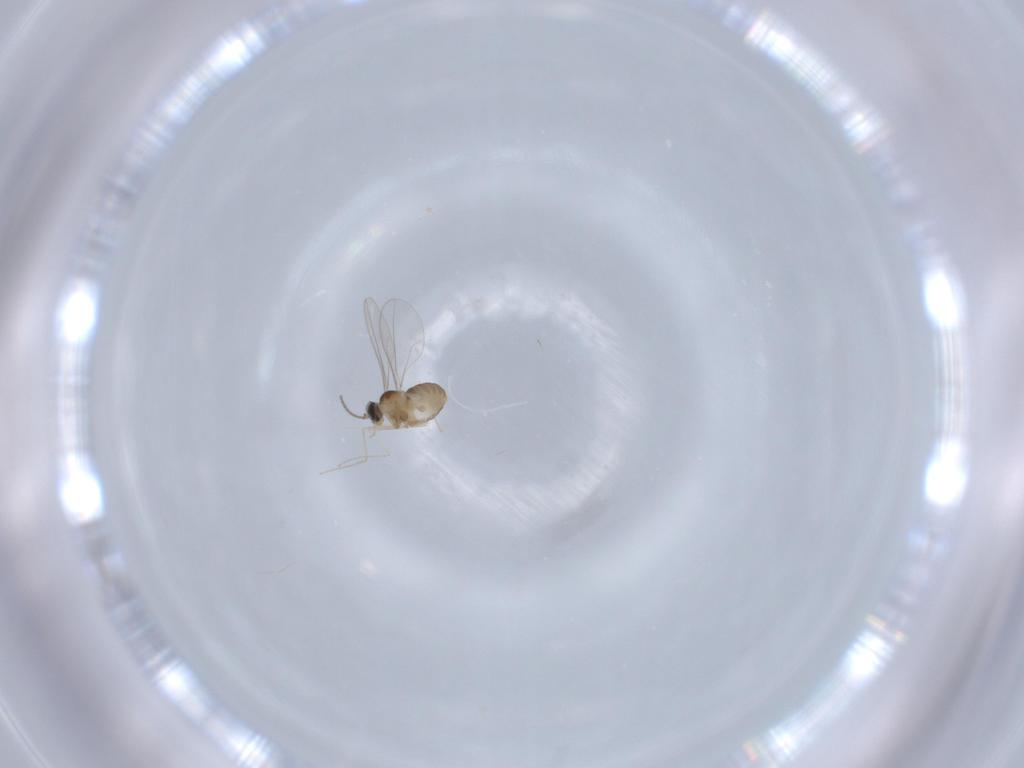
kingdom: Animalia
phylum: Arthropoda
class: Insecta
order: Diptera
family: Cecidomyiidae
